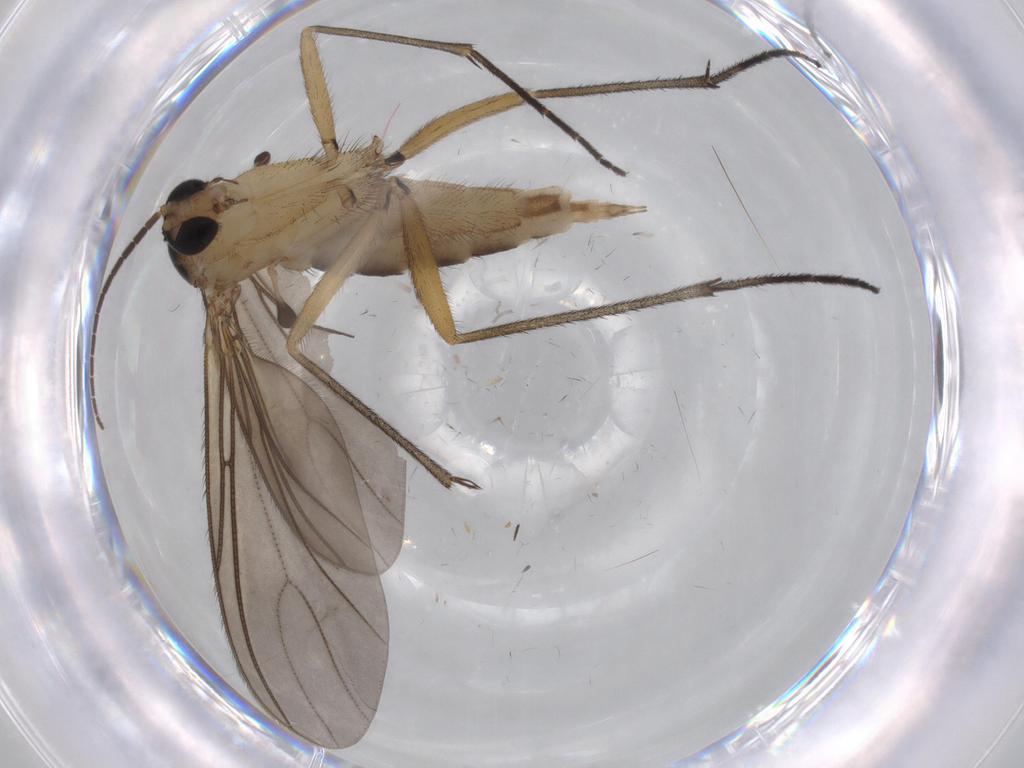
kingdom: Animalia
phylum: Arthropoda
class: Insecta
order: Diptera
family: Sciaridae
